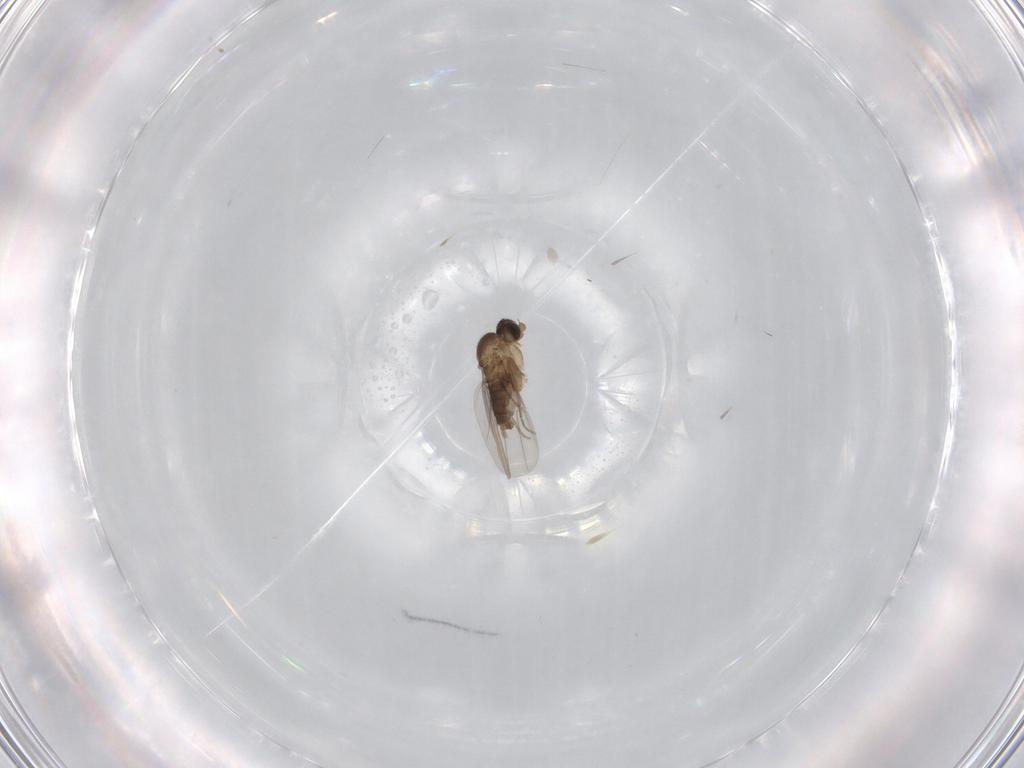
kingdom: Animalia
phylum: Arthropoda
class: Insecta
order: Diptera
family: Phoridae
